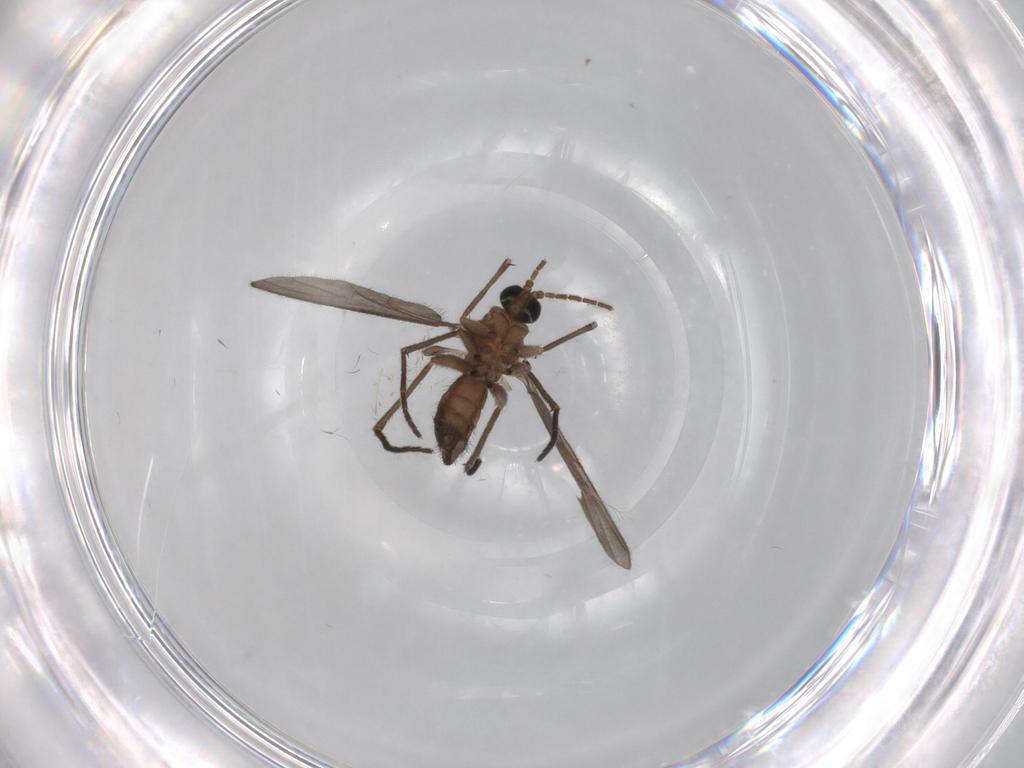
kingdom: Animalia
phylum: Arthropoda
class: Insecta
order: Diptera
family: Sciaridae
